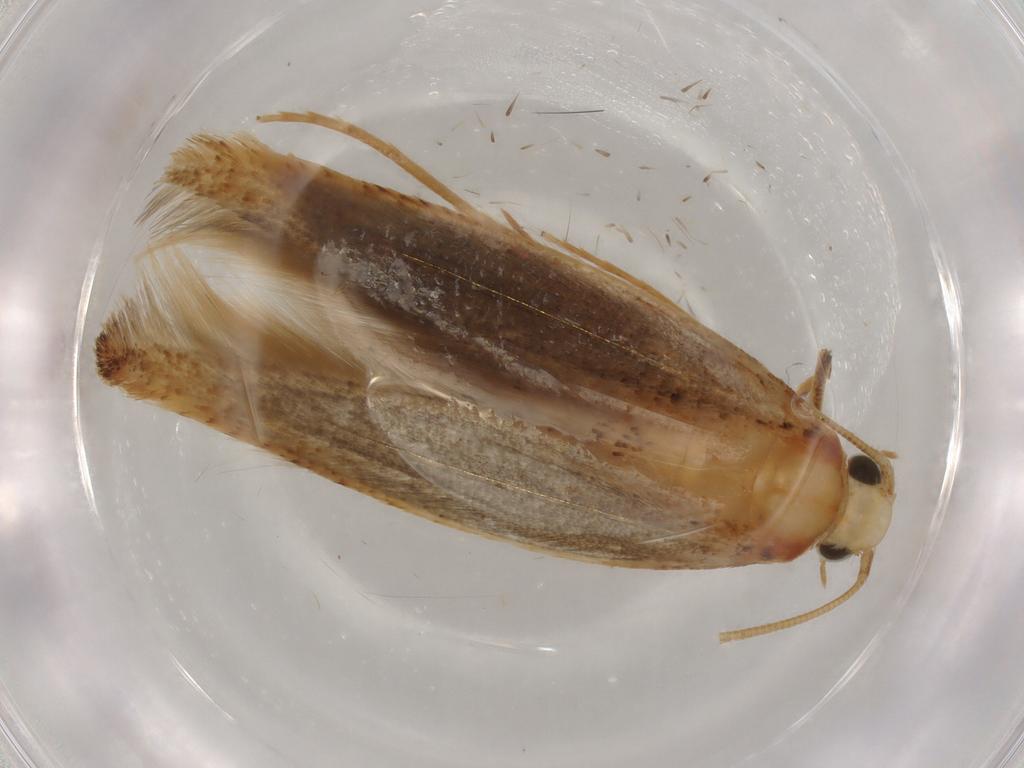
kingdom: Animalia
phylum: Arthropoda
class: Insecta
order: Lepidoptera
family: Tineidae
